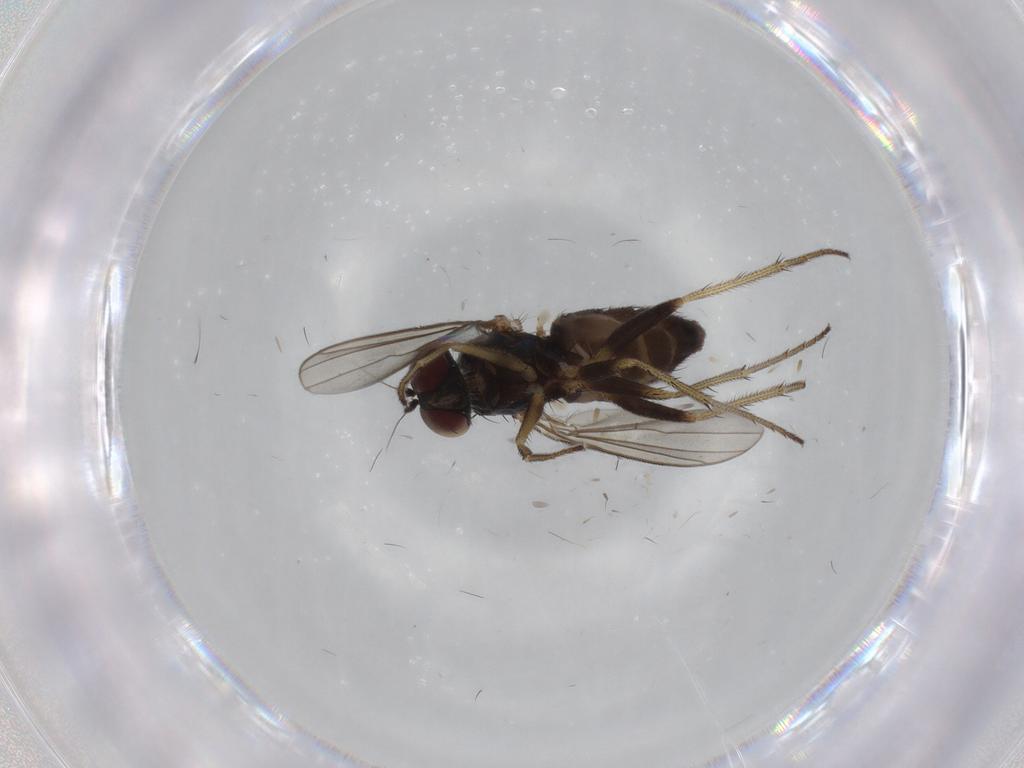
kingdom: Animalia
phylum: Arthropoda
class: Insecta
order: Diptera
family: Dolichopodidae
